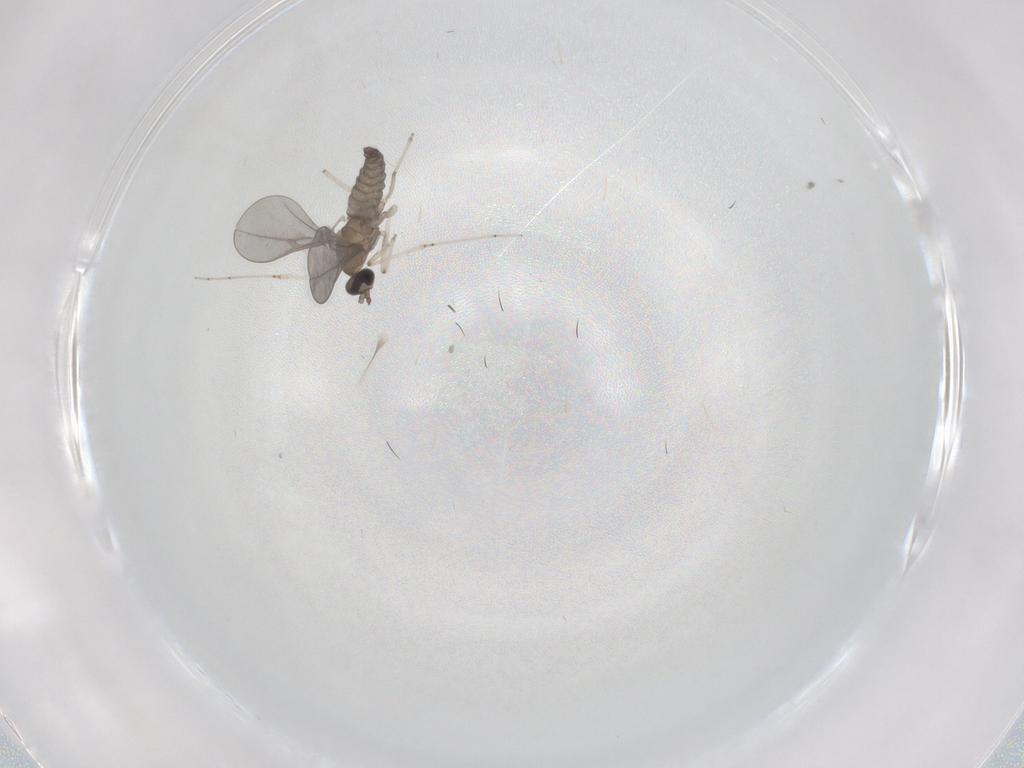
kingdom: Animalia
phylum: Arthropoda
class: Insecta
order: Diptera
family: Cecidomyiidae
